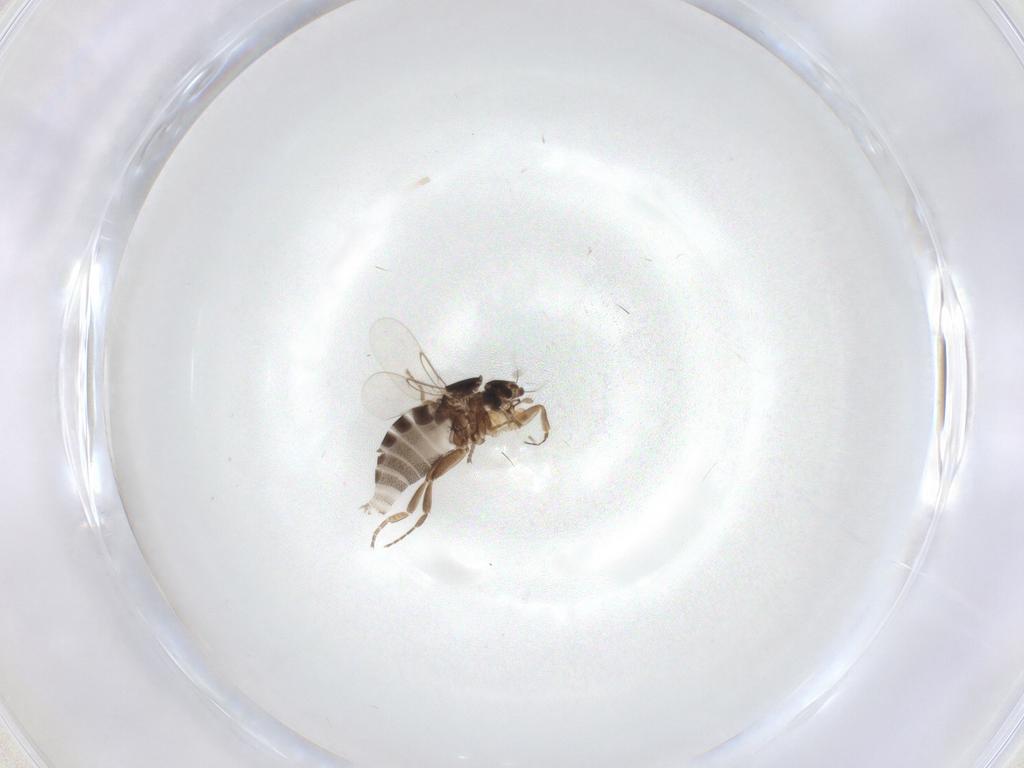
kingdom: Animalia
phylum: Arthropoda
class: Insecta
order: Diptera
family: Phoridae
